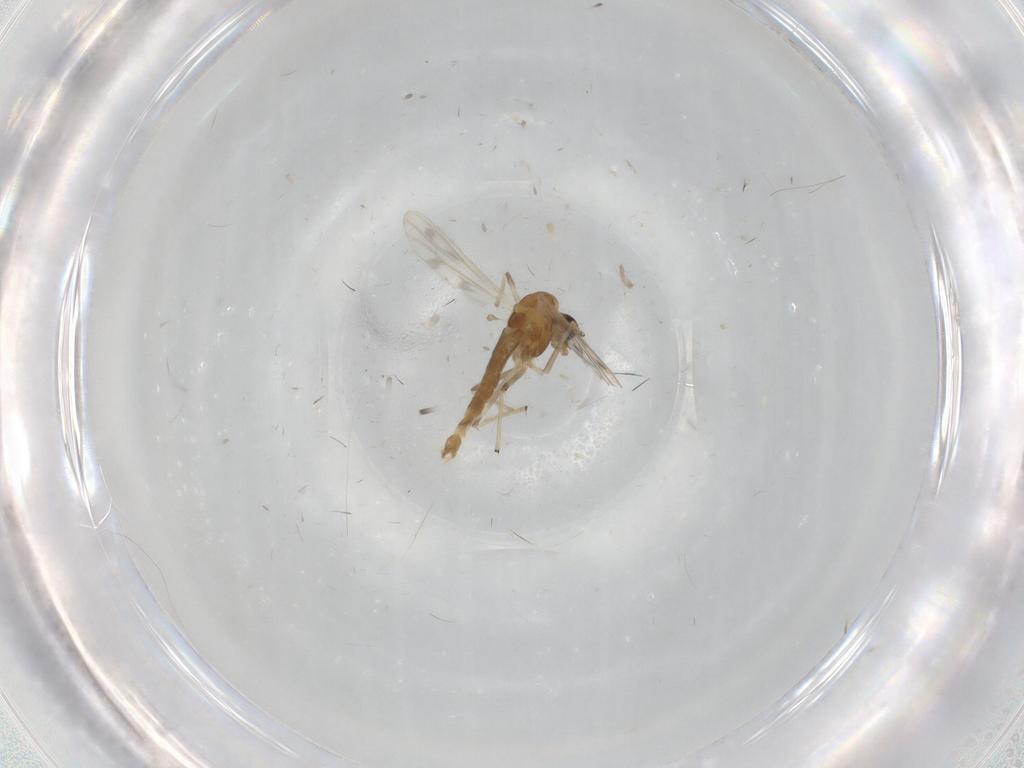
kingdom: Animalia
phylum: Arthropoda
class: Insecta
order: Diptera
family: Chironomidae
